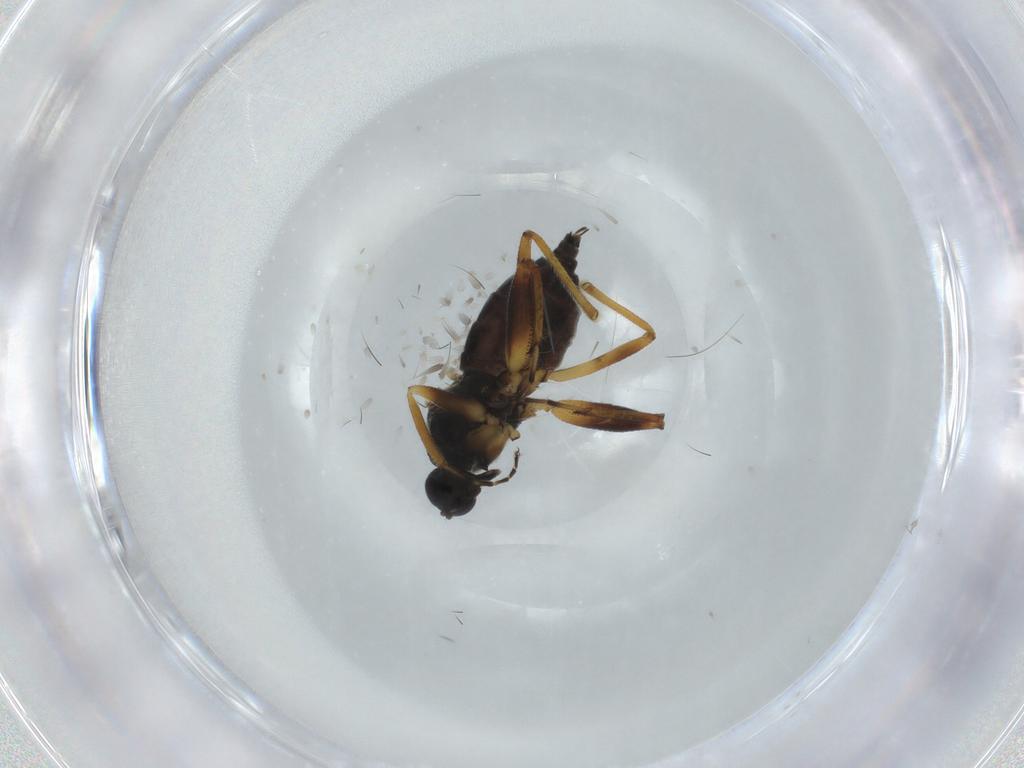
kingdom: Animalia
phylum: Arthropoda
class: Insecta
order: Diptera
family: Hybotidae
